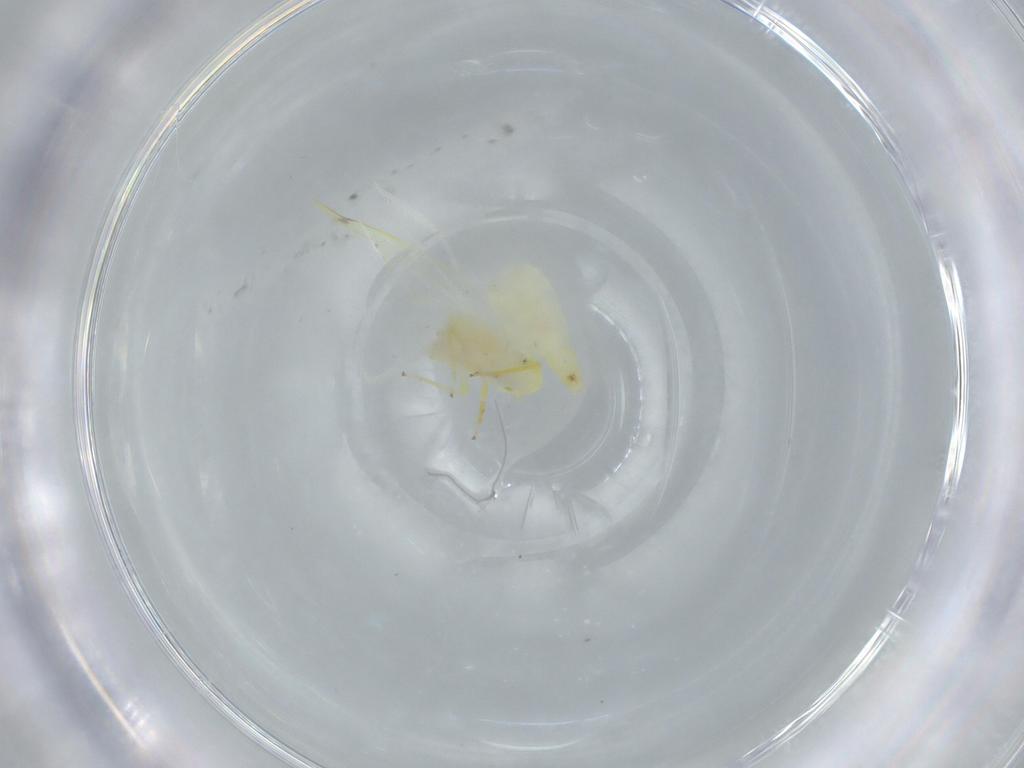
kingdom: Animalia
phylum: Arthropoda
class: Insecta
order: Hemiptera
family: Cicadellidae
